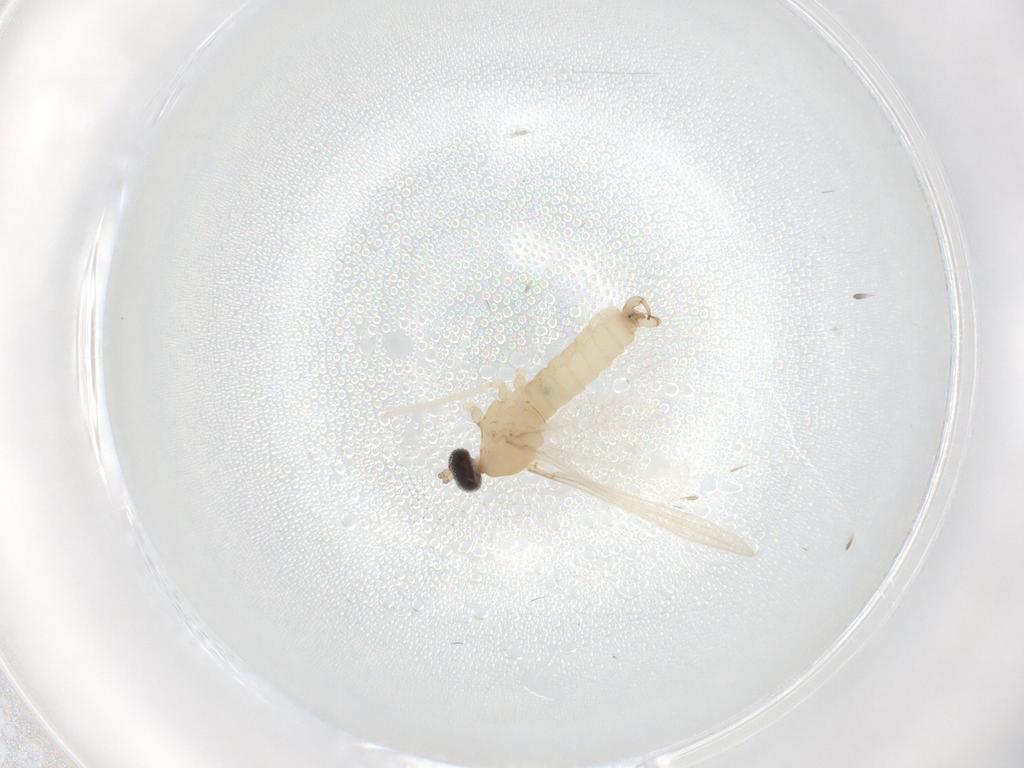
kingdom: Animalia
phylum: Arthropoda
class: Insecta
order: Diptera
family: Cecidomyiidae
